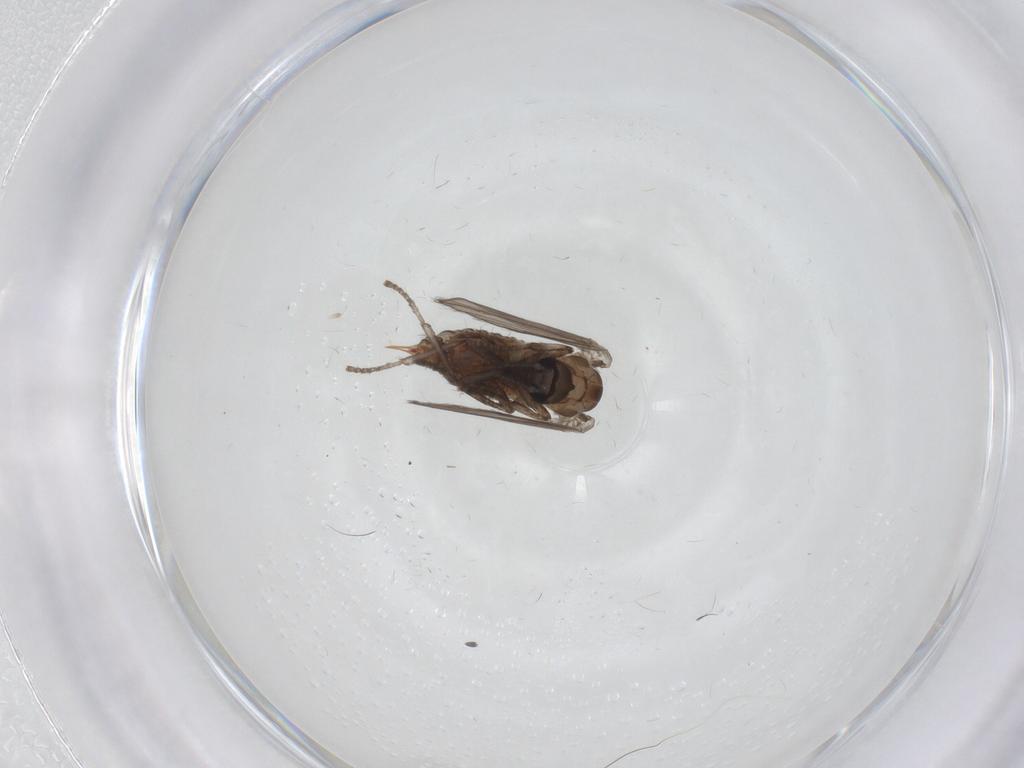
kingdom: Animalia
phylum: Arthropoda
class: Insecta
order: Diptera
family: Psychodidae
